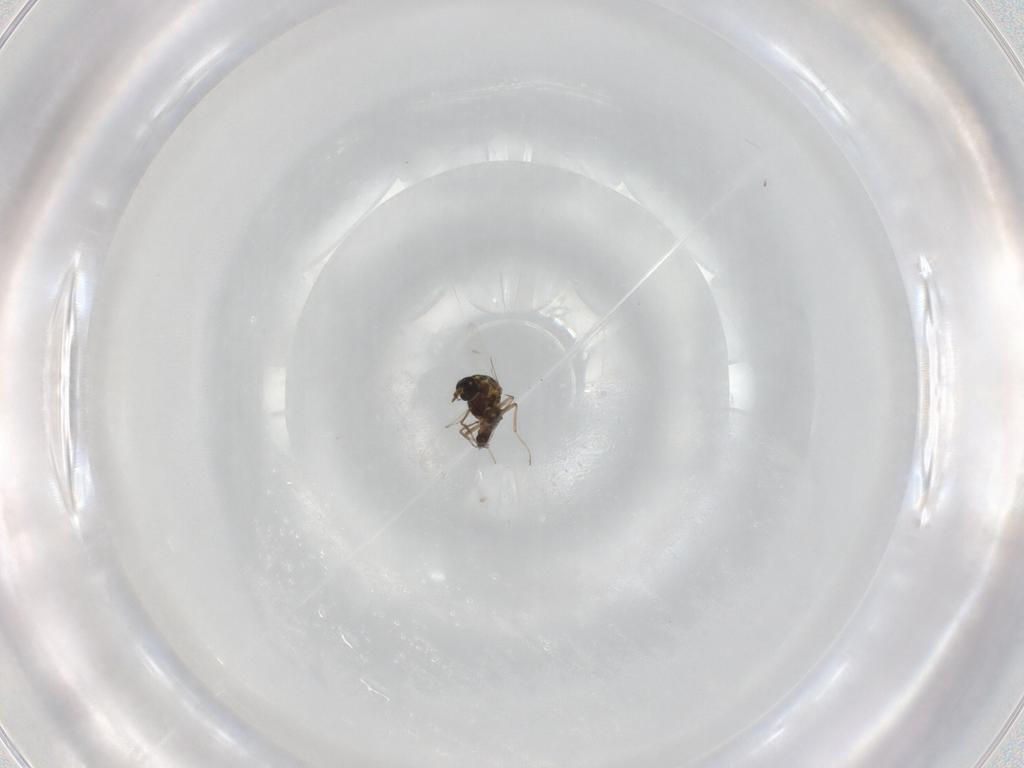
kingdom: Animalia
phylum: Arthropoda
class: Insecta
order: Diptera
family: Ceratopogonidae
